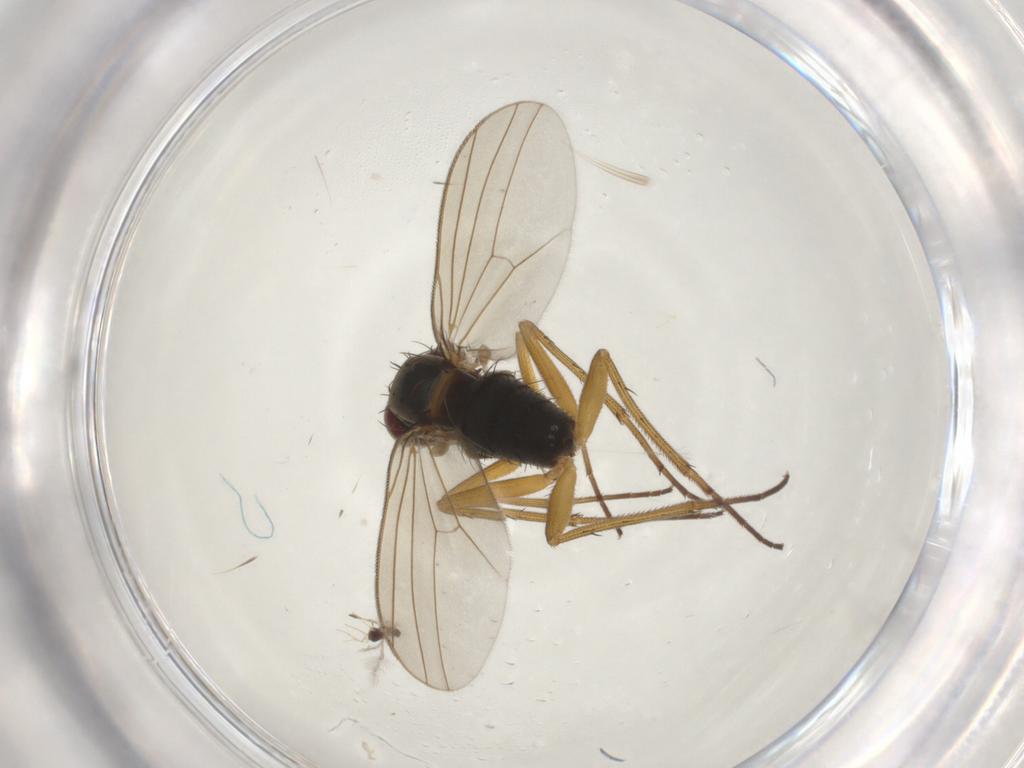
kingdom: Animalia
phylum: Arthropoda
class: Insecta
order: Diptera
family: Dolichopodidae
